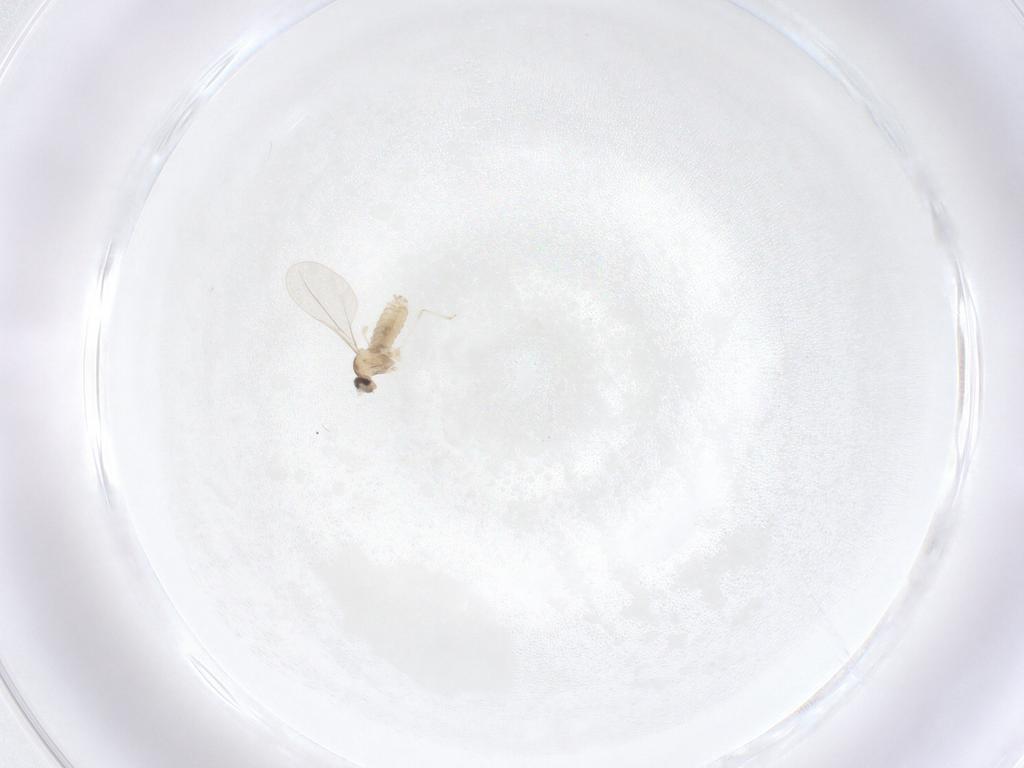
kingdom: Animalia
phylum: Arthropoda
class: Insecta
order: Diptera
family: Cecidomyiidae
